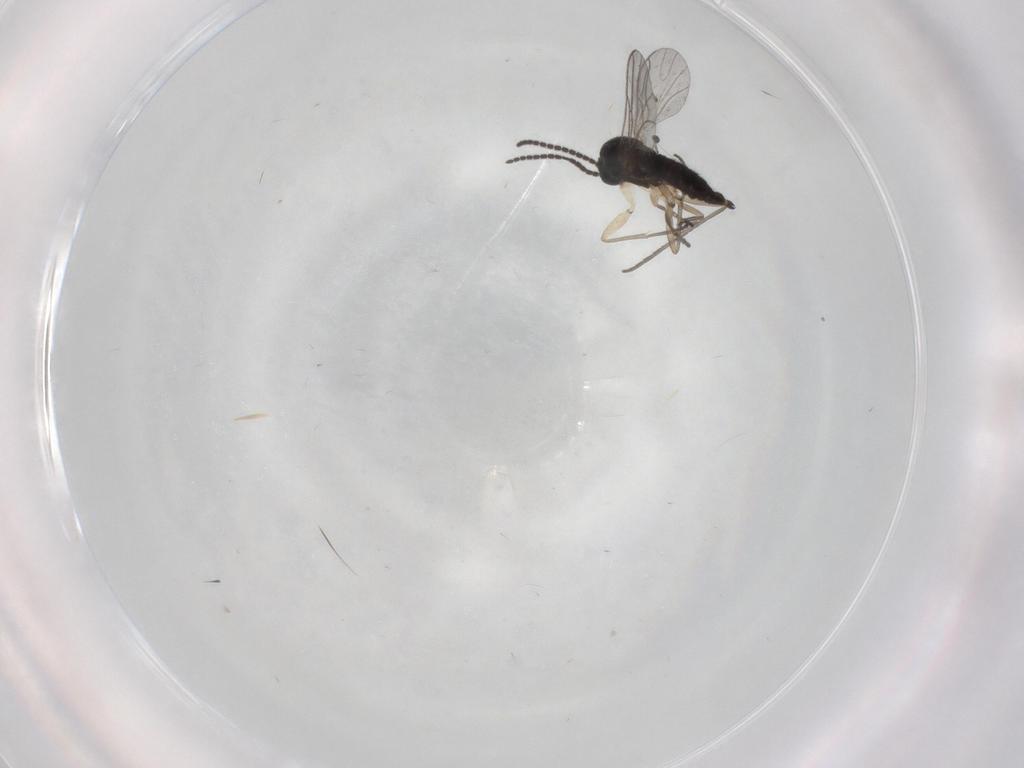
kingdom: Animalia
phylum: Arthropoda
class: Insecta
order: Diptera
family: Sciaridae
